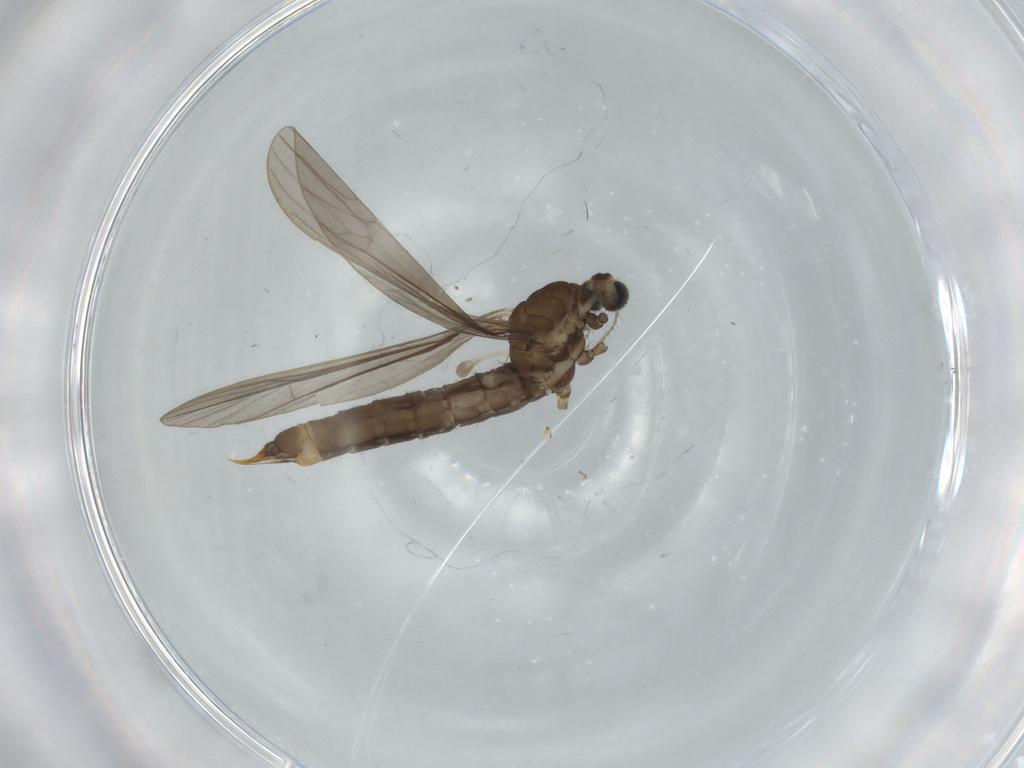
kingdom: Animalia
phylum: Arthropoda
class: Insecta
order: Diptera
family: Limoniidae
